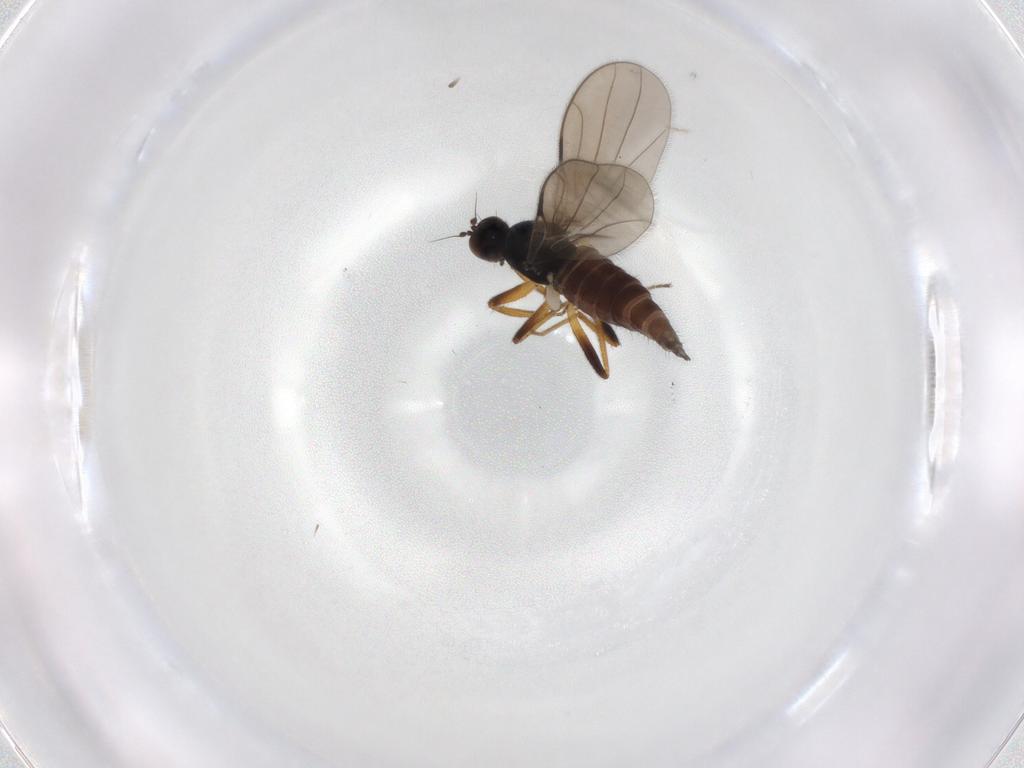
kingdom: Animalia
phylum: Arthropoda
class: Insecta
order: Diptera
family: Hybotidae
